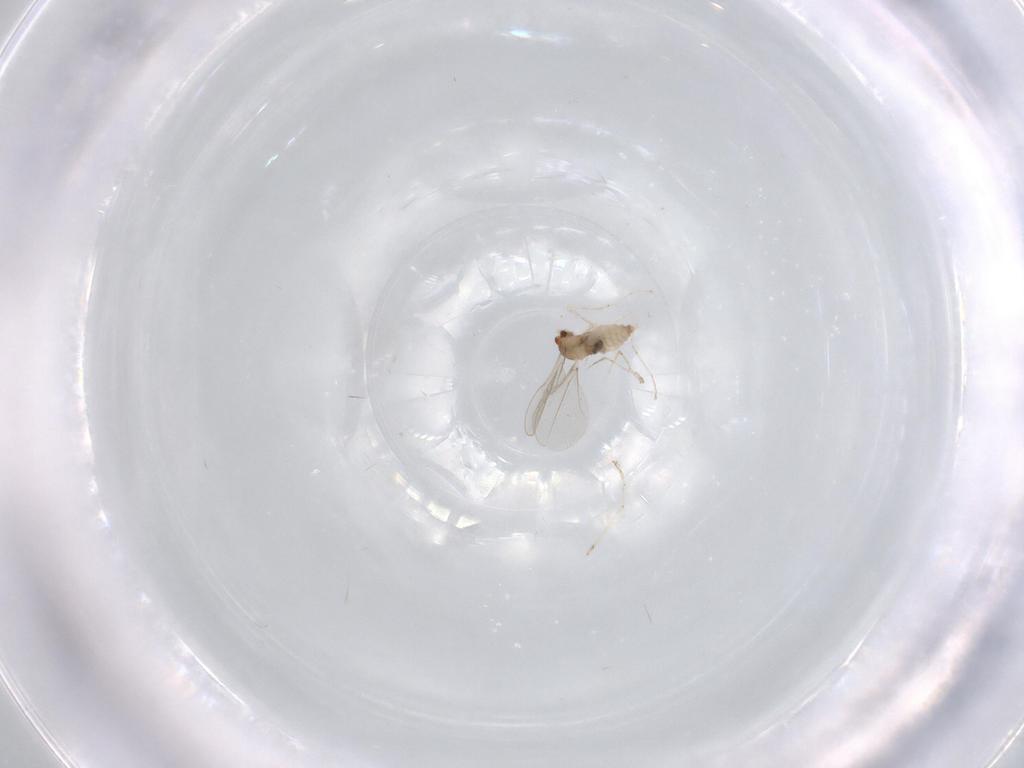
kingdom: Animalia
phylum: Arthropoda
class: Insecta
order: Diptera
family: Cecidomyiidae
